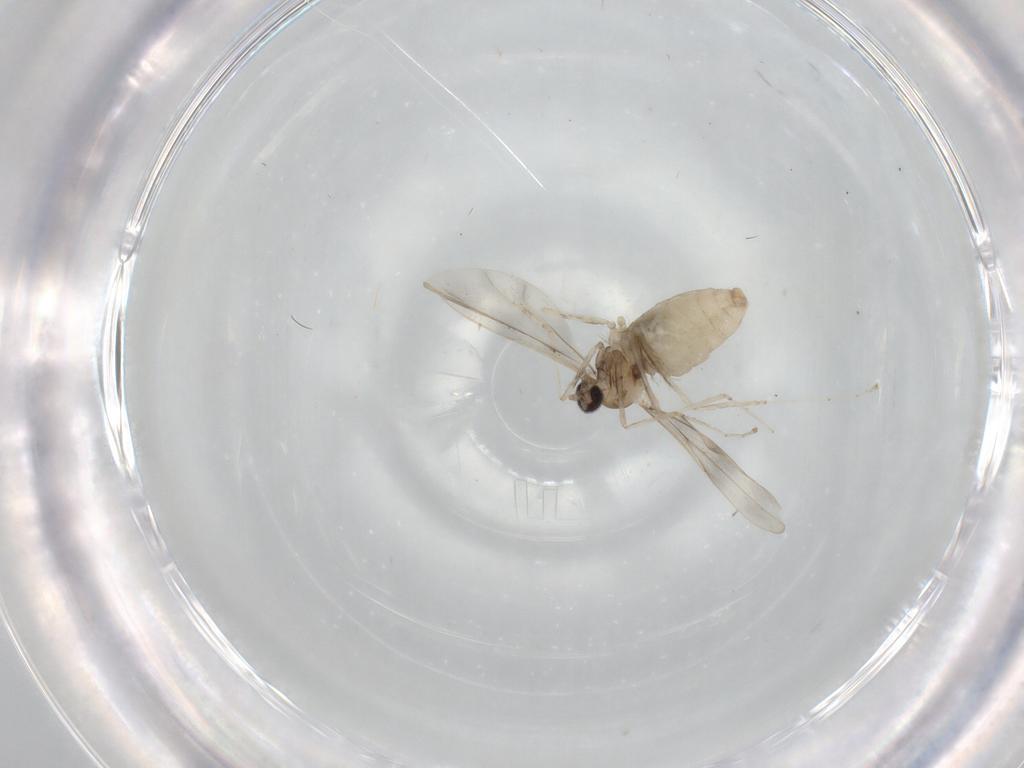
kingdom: Animalia
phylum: Arthropoda
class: Insecta
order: Diptera
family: Cecidomyiidae
